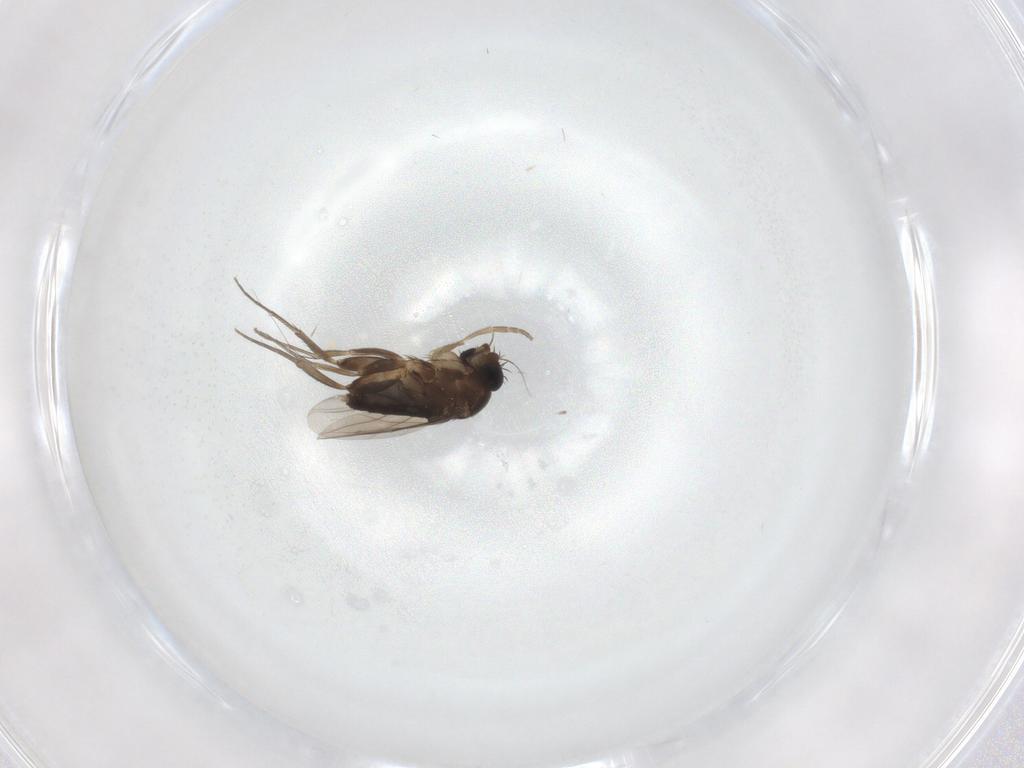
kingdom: Animalia
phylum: Arthropoda
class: Insecta
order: Diptera
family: Phoridae
